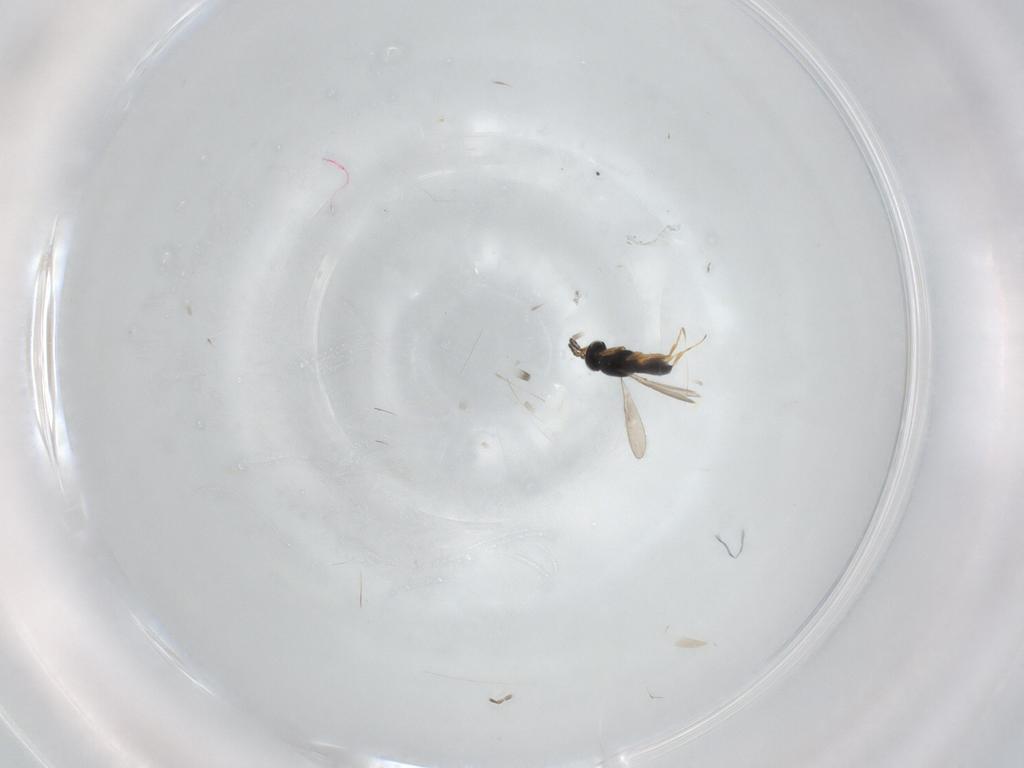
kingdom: Animalia
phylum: Arthropoda
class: Insecta
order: Hymenoptera
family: Scelionidae
